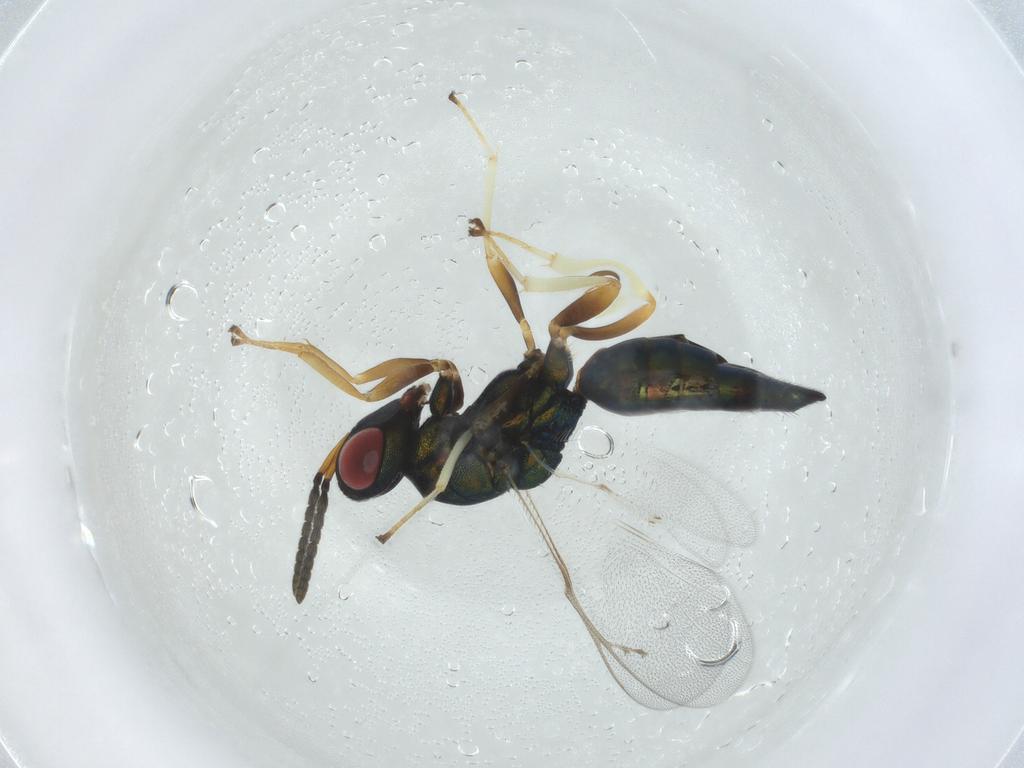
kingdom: Animalia
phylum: Arthropoda
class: Insecta
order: Hymenoptera
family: Pteromalidae
